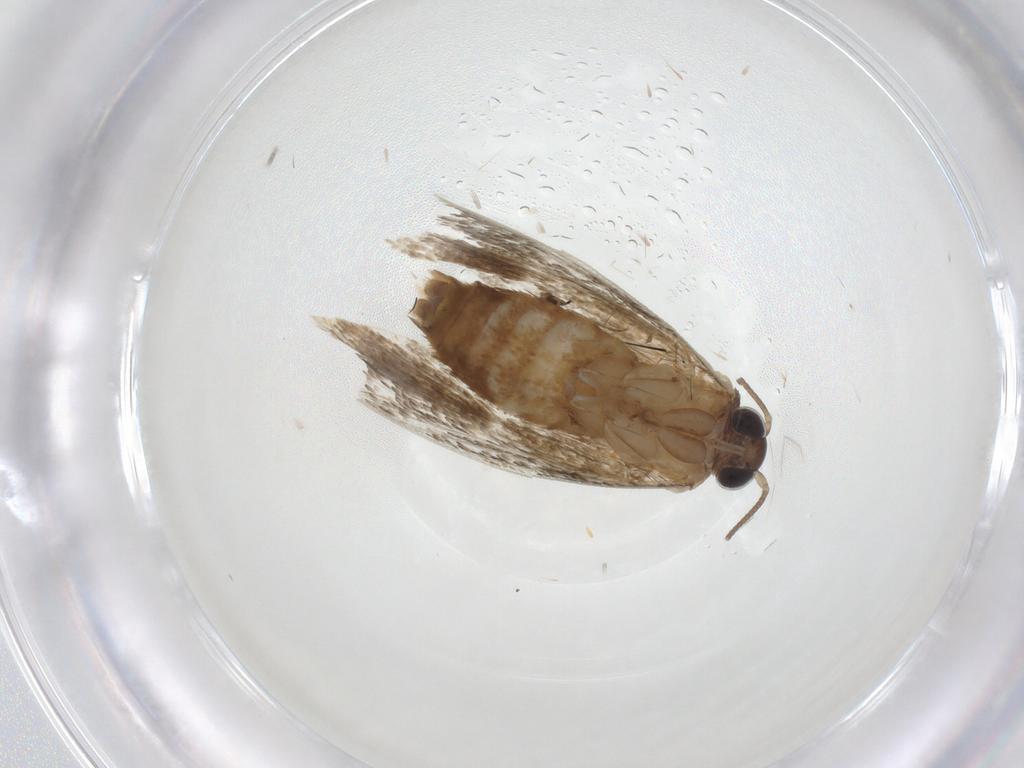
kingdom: Animalia
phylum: Arthropoda
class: Insecta
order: Lepidoptera
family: Tortricidae
